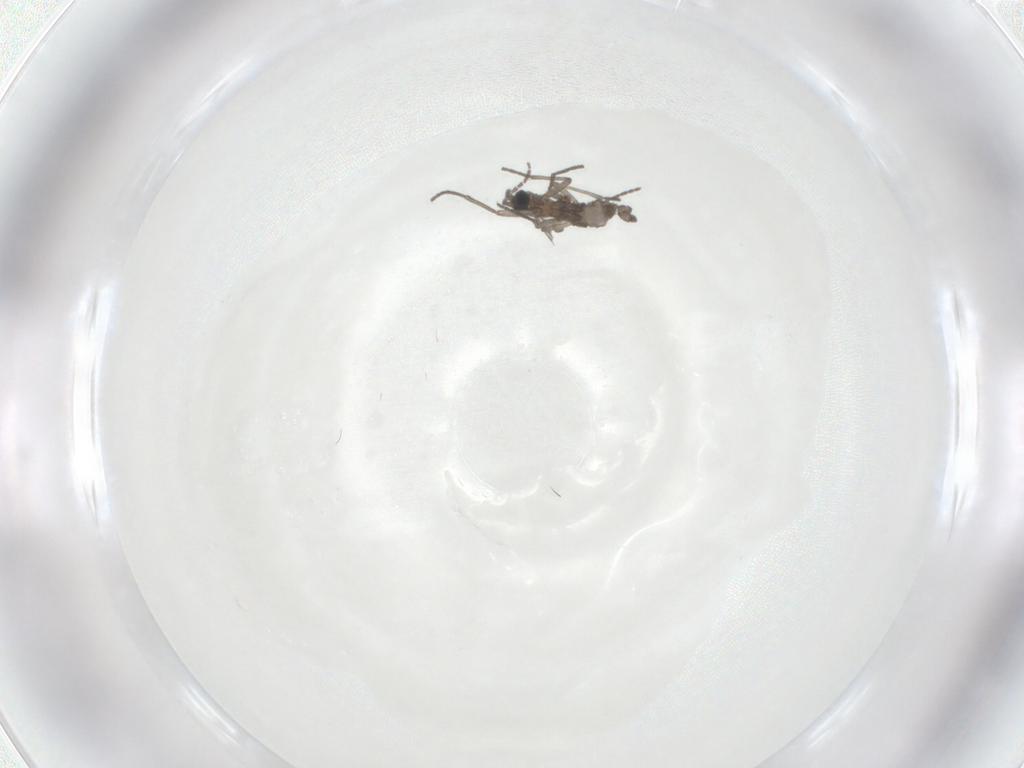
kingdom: Animalia
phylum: Arthropoda
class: Insecta
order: Diptera
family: Sciaridae
